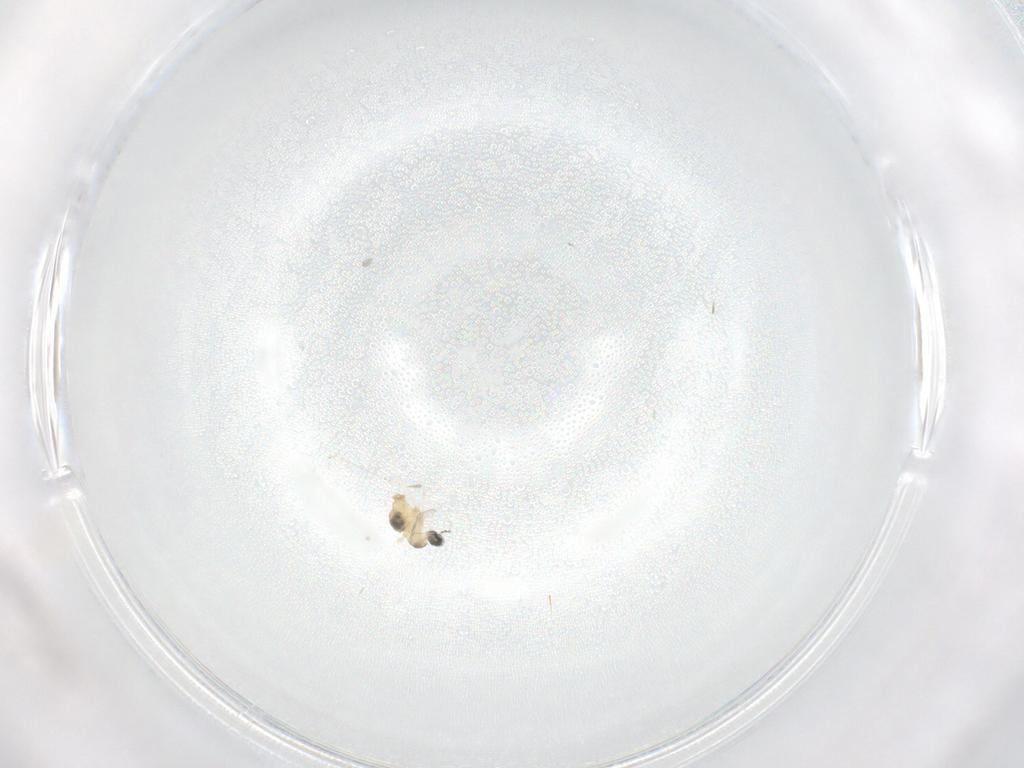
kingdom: Animalia
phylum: Arthropoda
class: Insecta
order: Diptera
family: Cecidomyiidae
